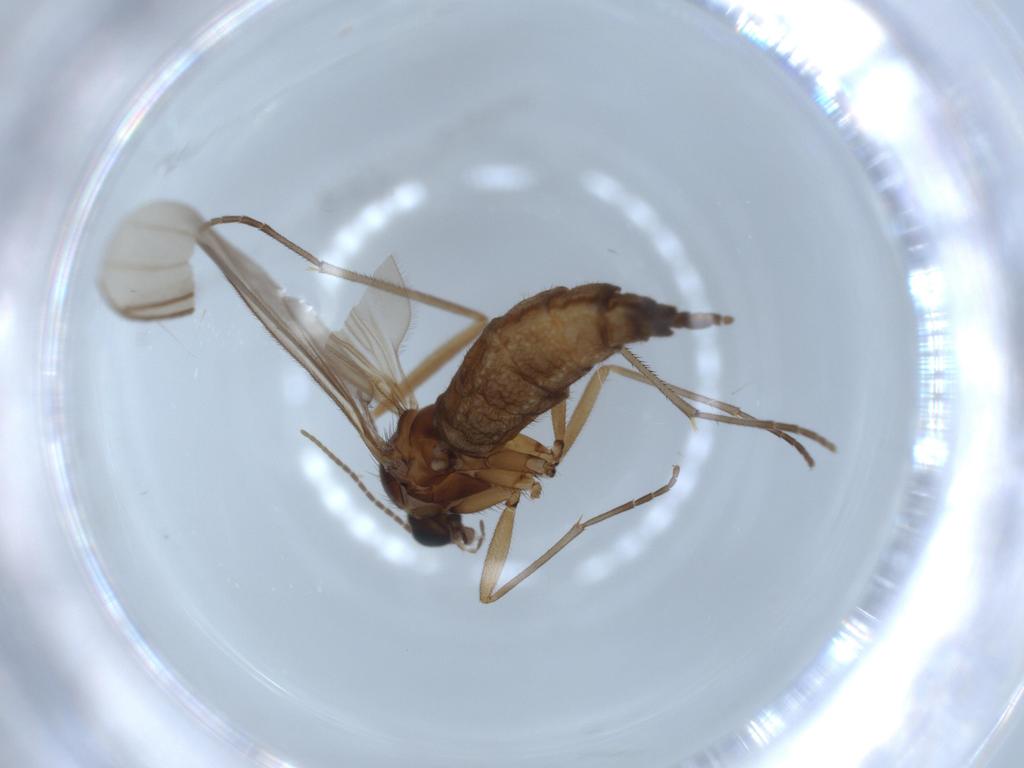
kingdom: Animalia
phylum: Arthropoda
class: Insecta
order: Diptera
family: Sciaridae
